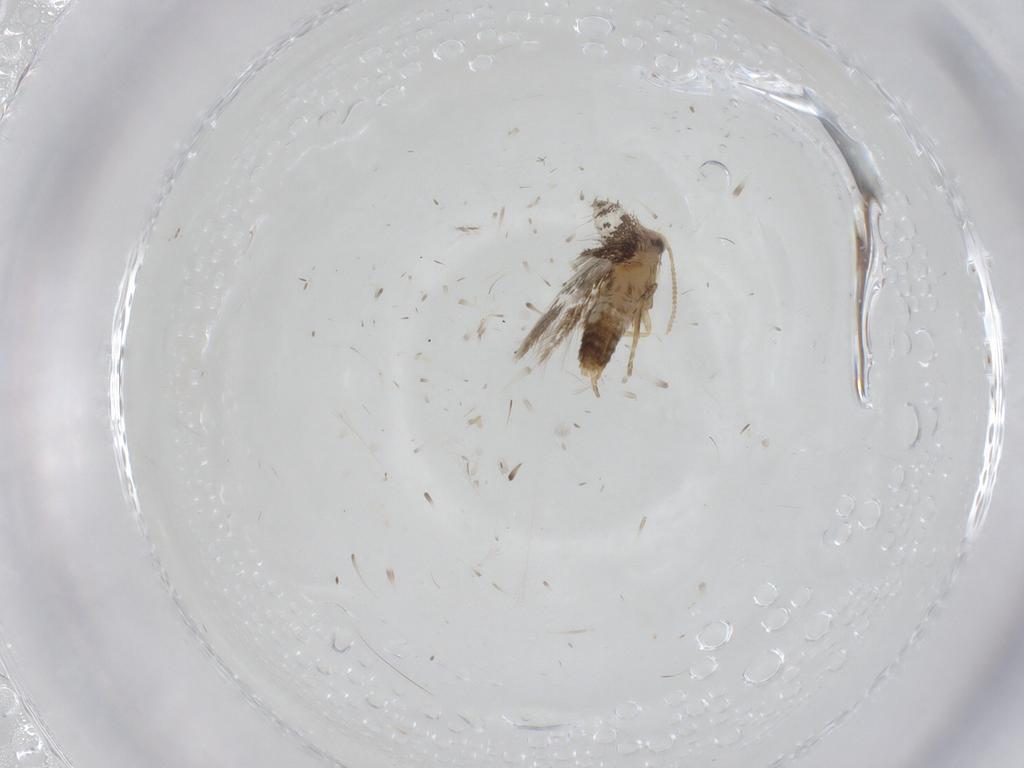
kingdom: Animalia
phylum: Arthropoda
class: Insecta
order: Lepidoptera
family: Nepticulidae
